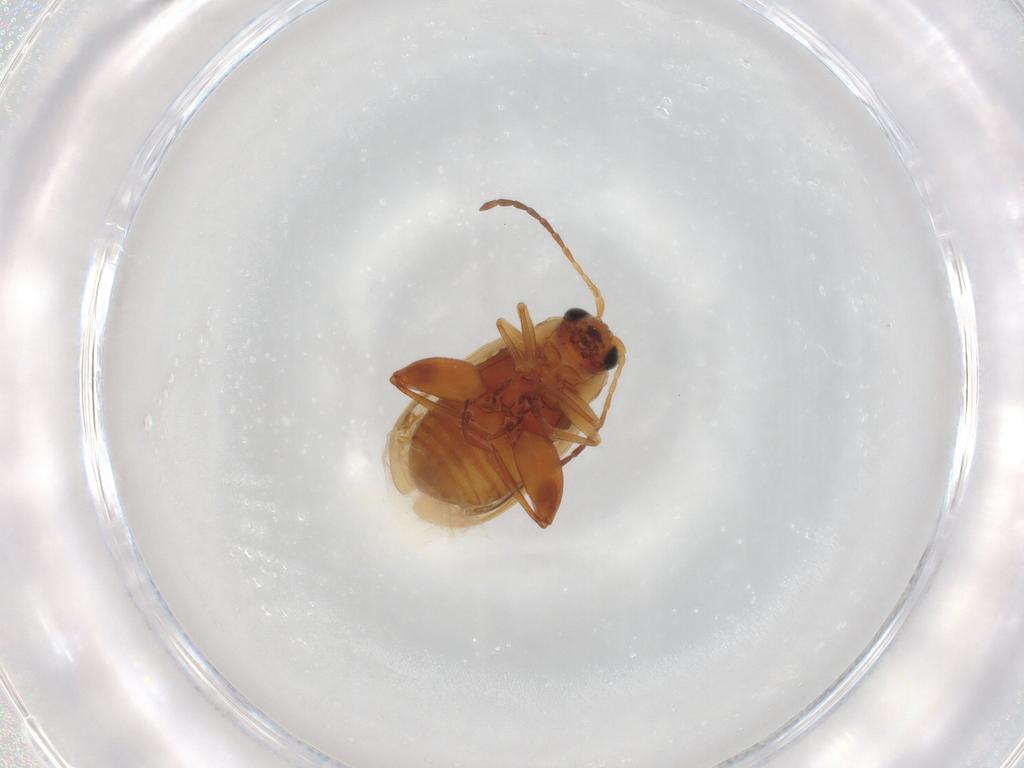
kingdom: Animalia
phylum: Arthropoda
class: Insecta
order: Coleoptera
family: Chrysomelidae
